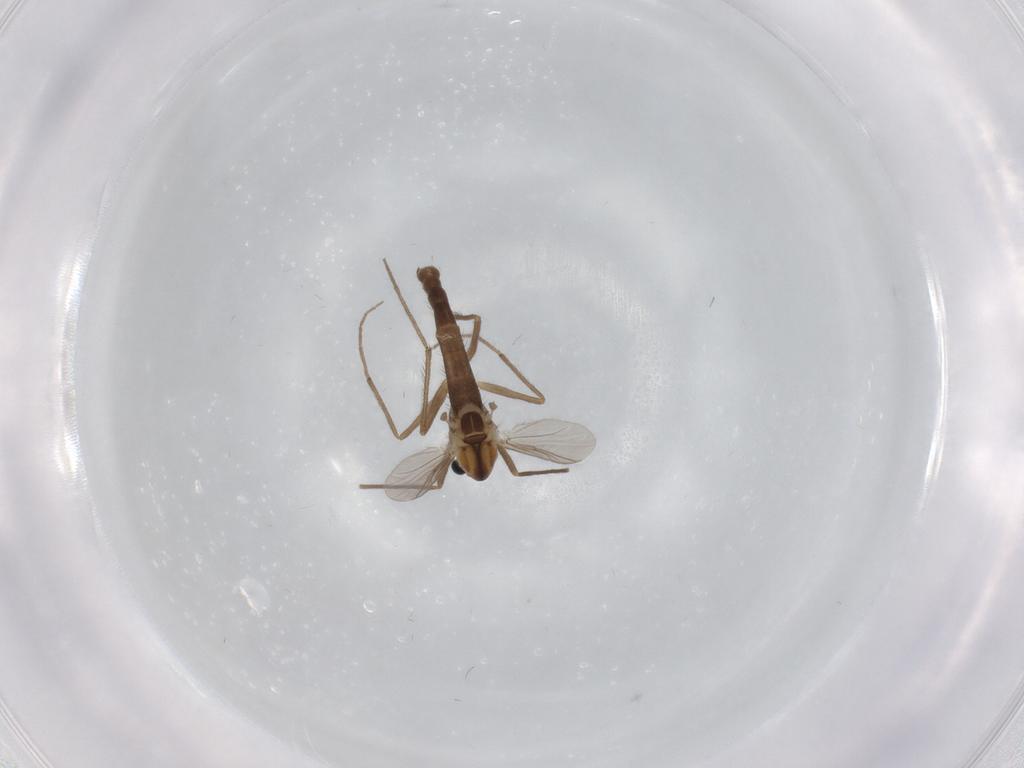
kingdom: Animalia
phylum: Arthropoda
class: Insecta
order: Diptera
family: Chironomidae
